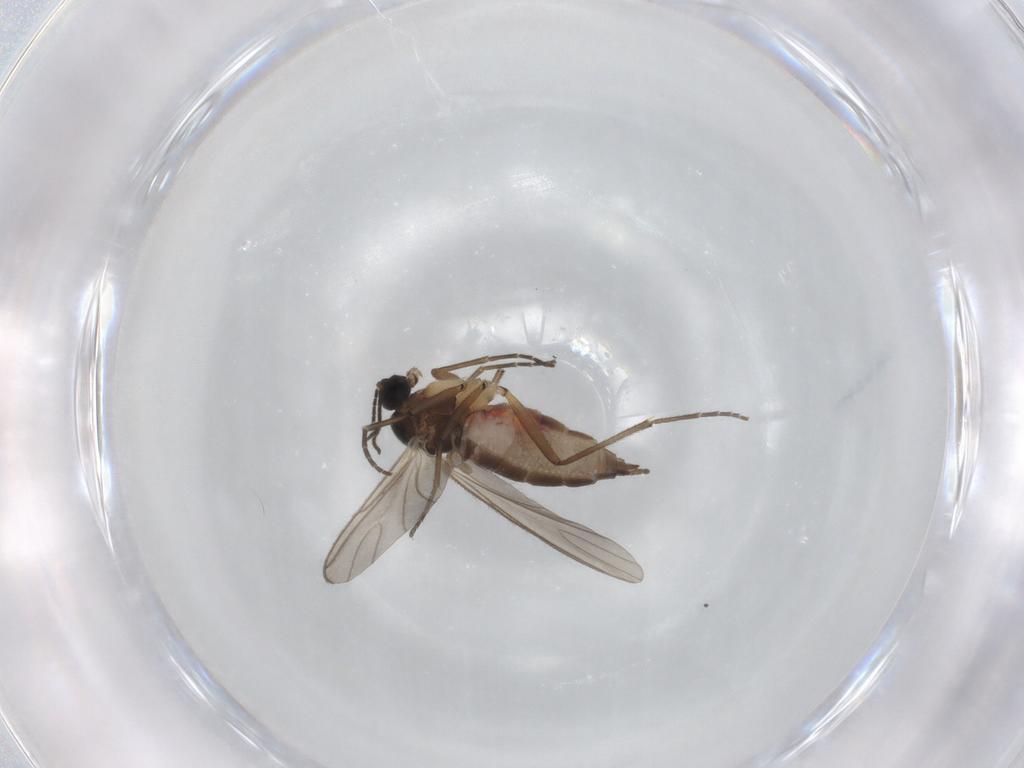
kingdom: Animalia
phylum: Arthropoda
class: Insecta
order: Diptera
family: Sciaridae
